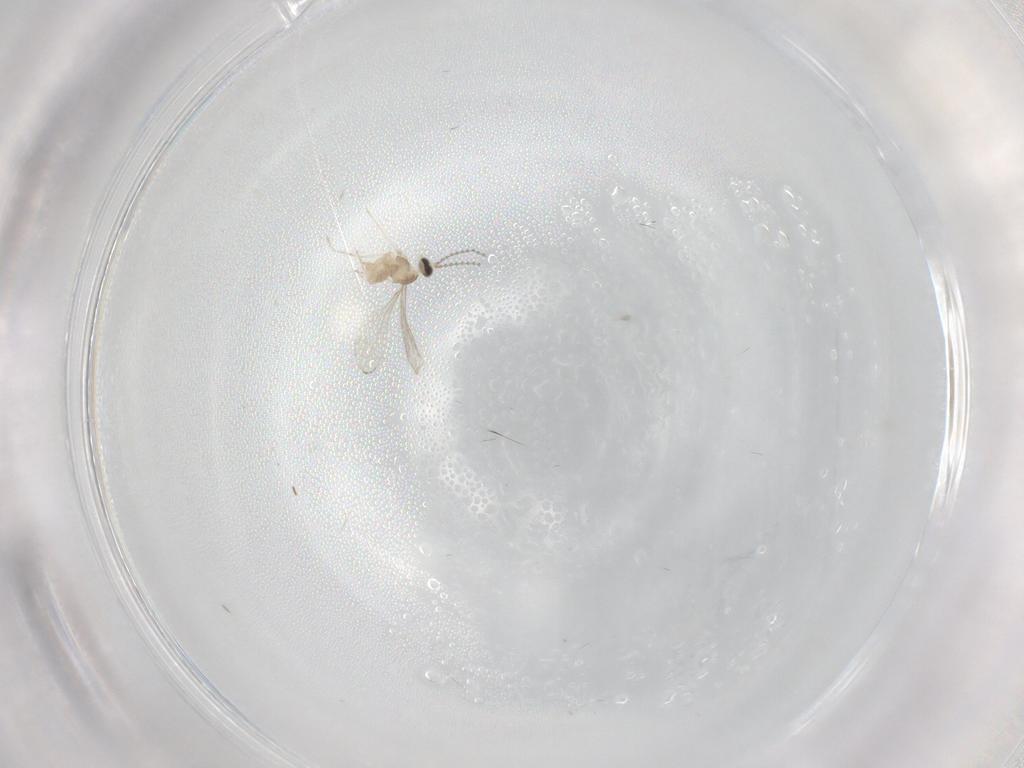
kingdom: Animalia
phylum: Arthropoda
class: Insecta
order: Diptera
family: Cecidomyiidae
